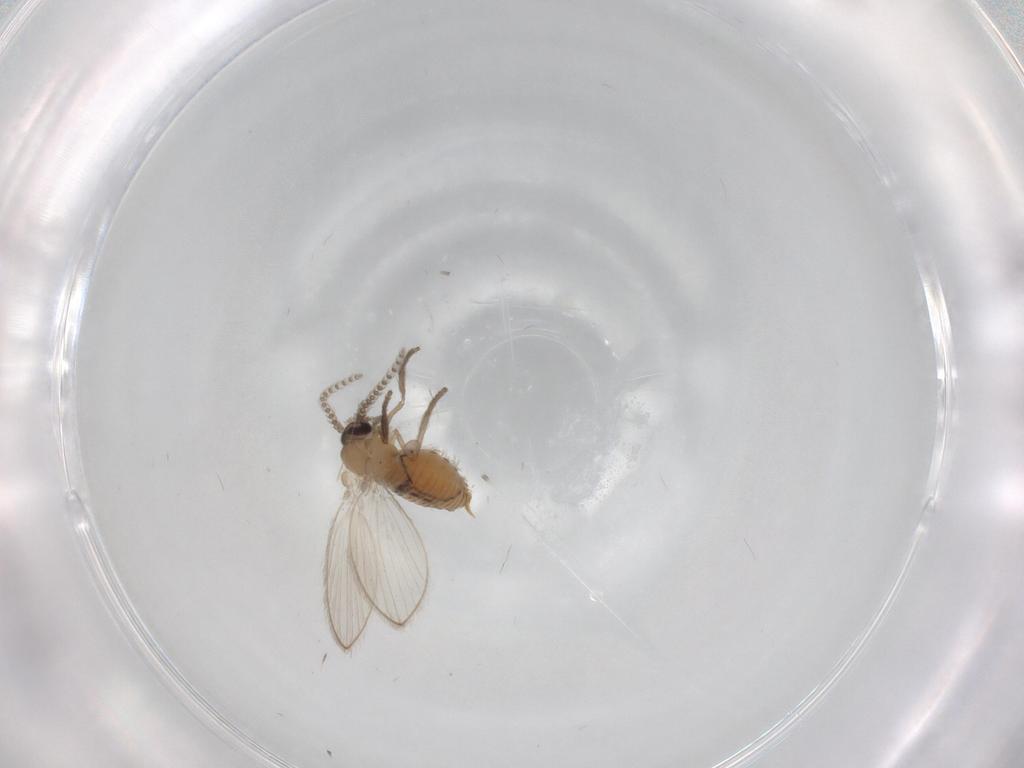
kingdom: Animalia
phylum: Arthropoda
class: Insecta
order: Diptera
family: Psychodidae
